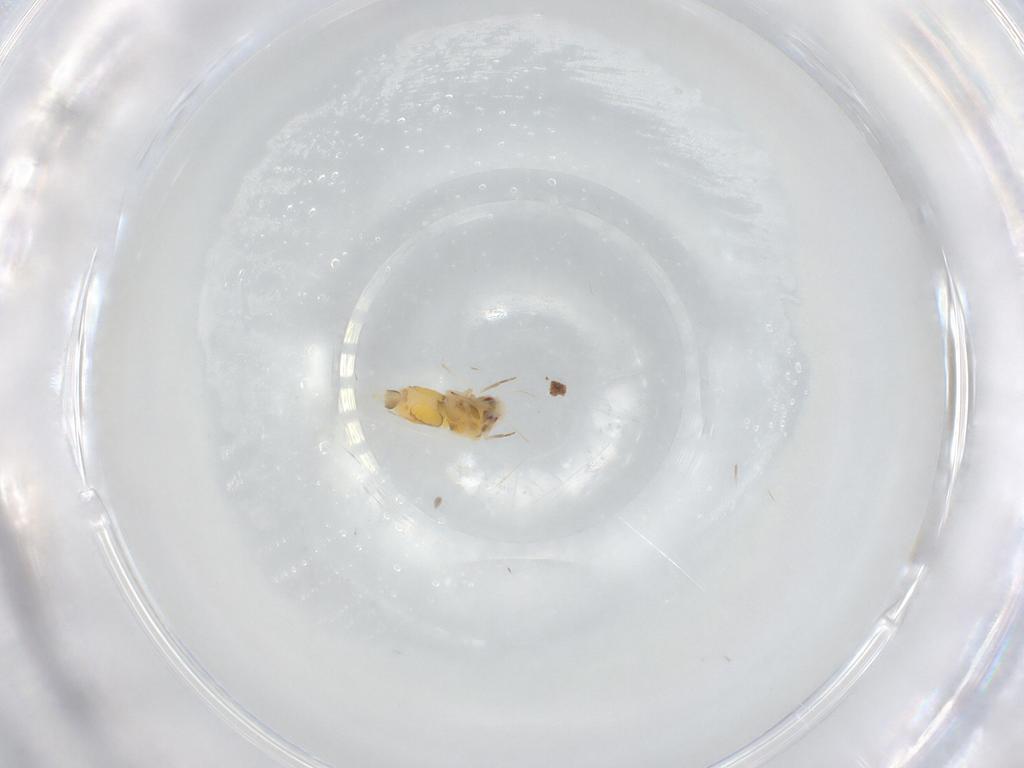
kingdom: Animalia
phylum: Arthropoda
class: Insecta
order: Hemiptera
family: Aleyrodidae
